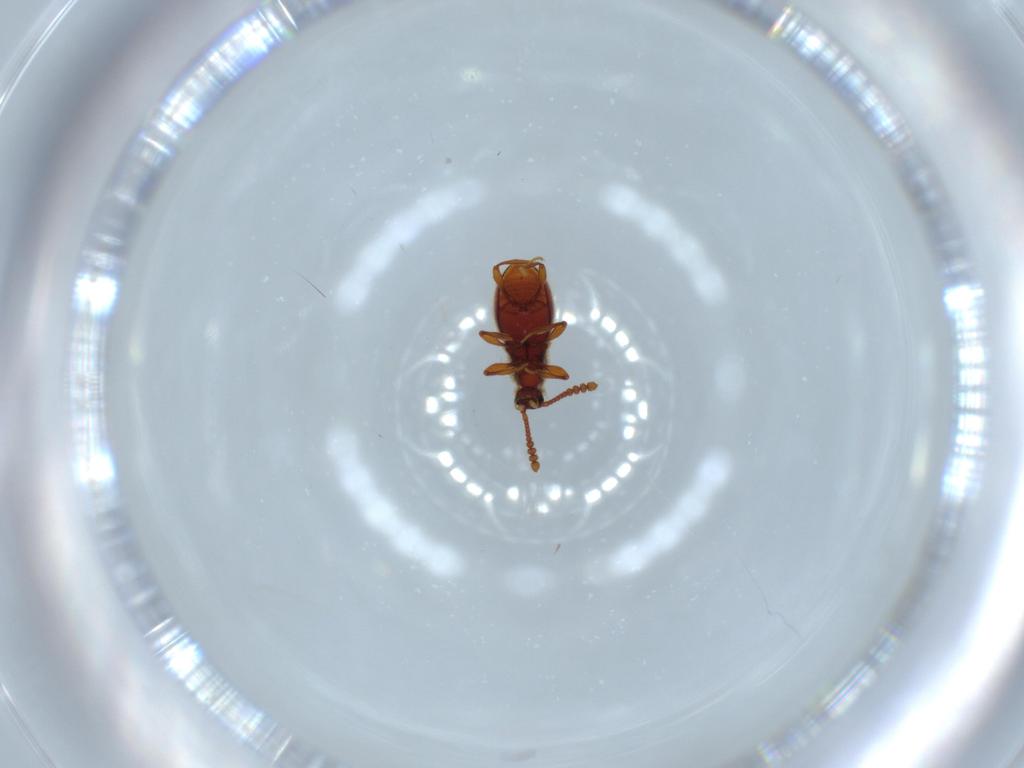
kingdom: Animalia
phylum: Arthropoda
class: Insecta
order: Coleoptera
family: Staphylinidae
